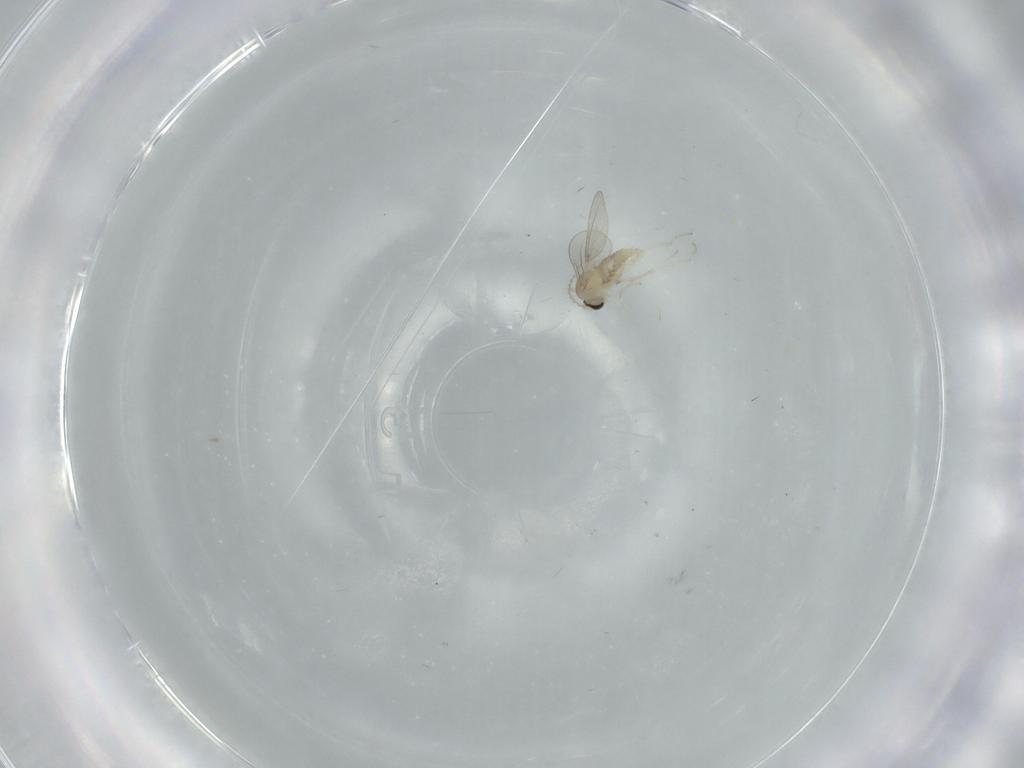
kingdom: Animalia
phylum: Arthropoda
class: Insecta
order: Diptera
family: Cecidomyiidae
